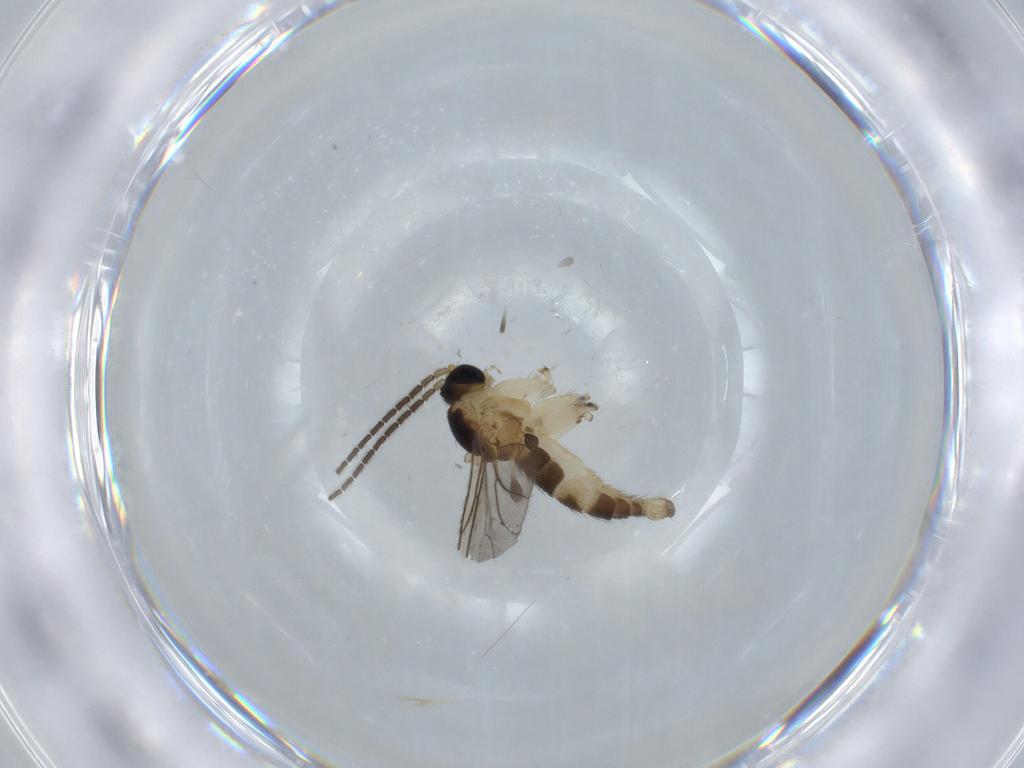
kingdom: Animalia
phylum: Arthropoda
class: Insecta
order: Diptera
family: Sciaridae
